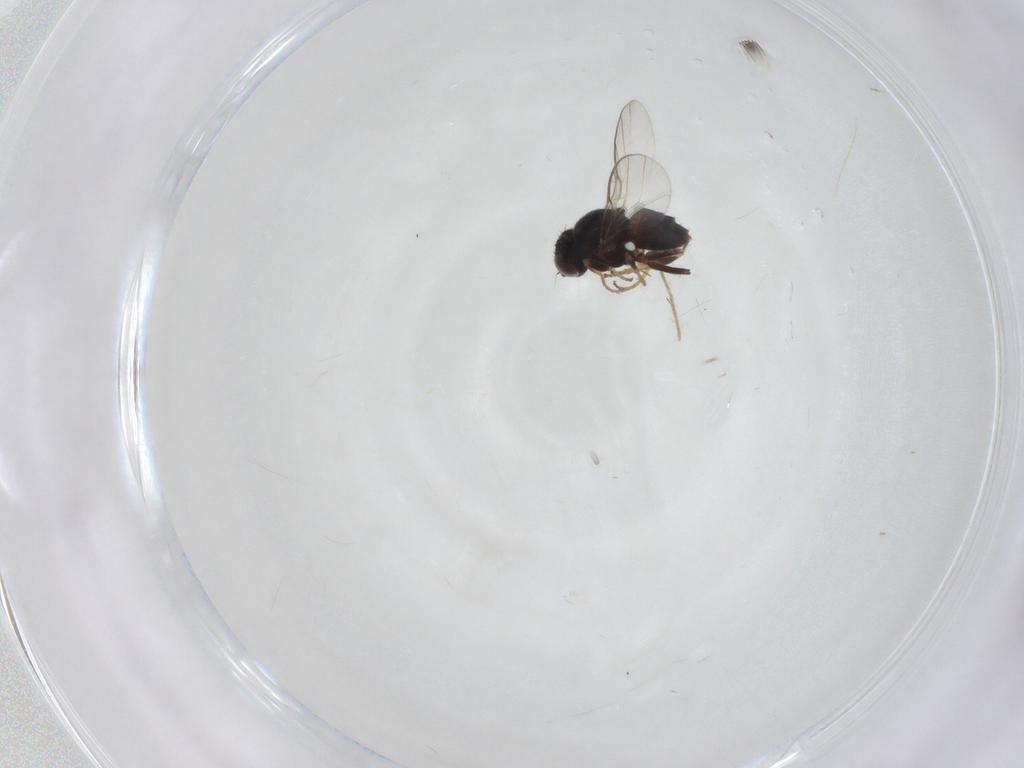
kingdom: Animalia
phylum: Arthropoda
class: Insecta
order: Diptera
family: Chloropidae
